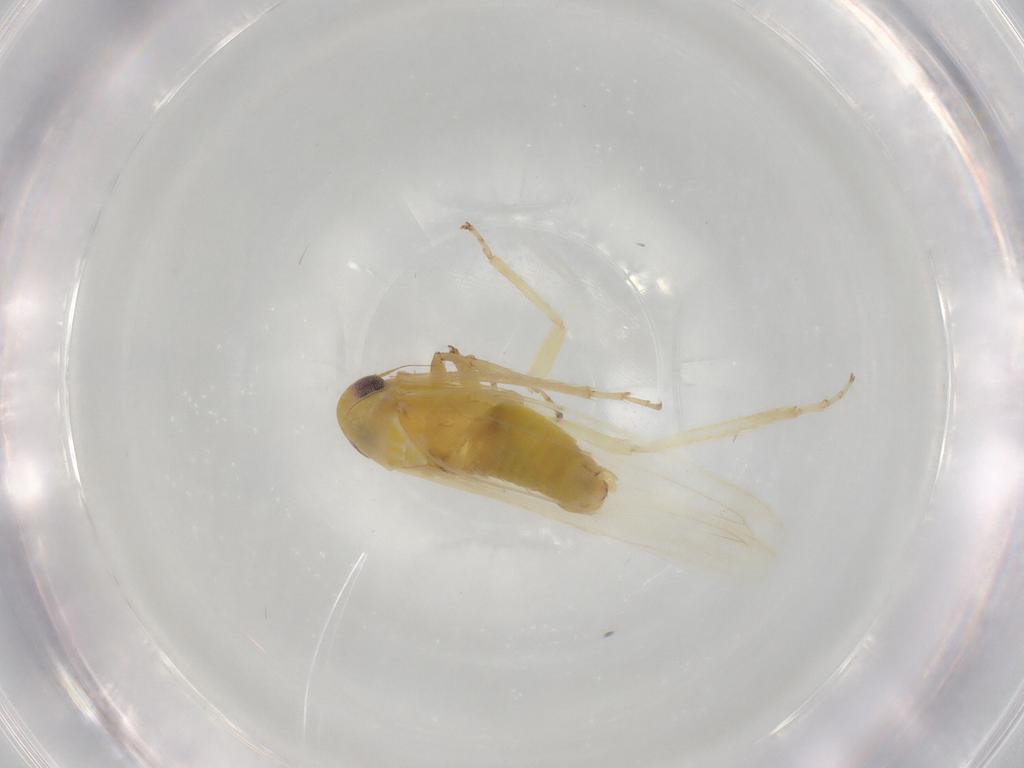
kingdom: Animalia
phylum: Arthropoda
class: Insecta
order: Hemiptera
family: Cicadellidae
